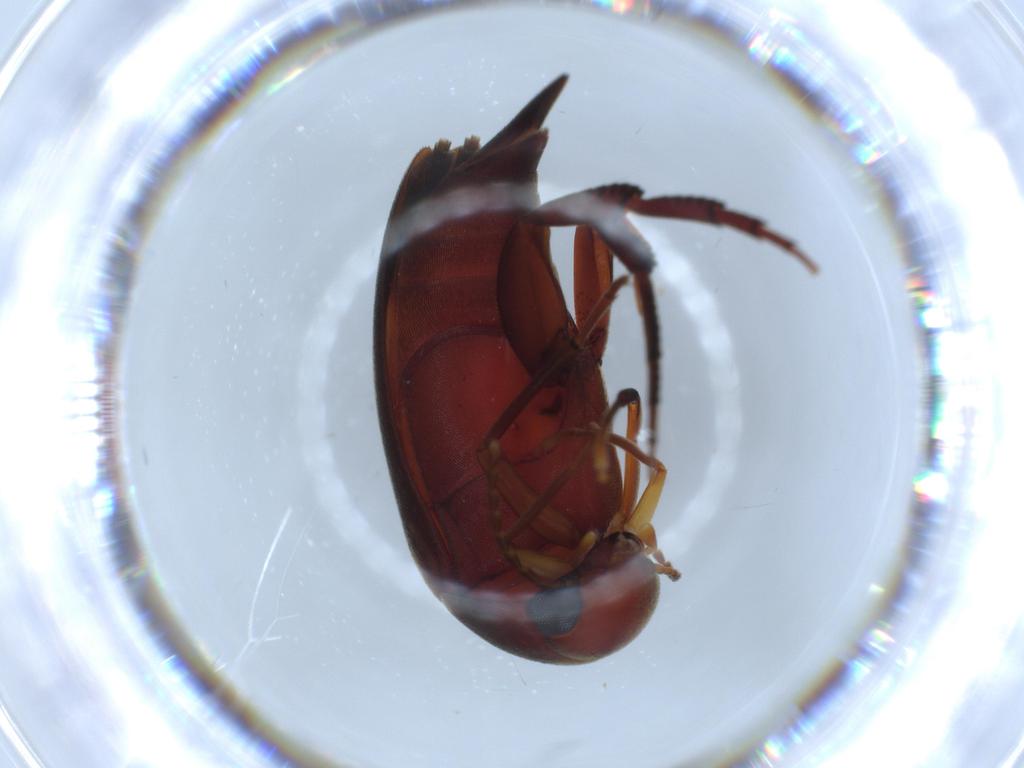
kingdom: Animalia
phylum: Arthropoda
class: Insecta
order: Coleoptera
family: Mordellidae
